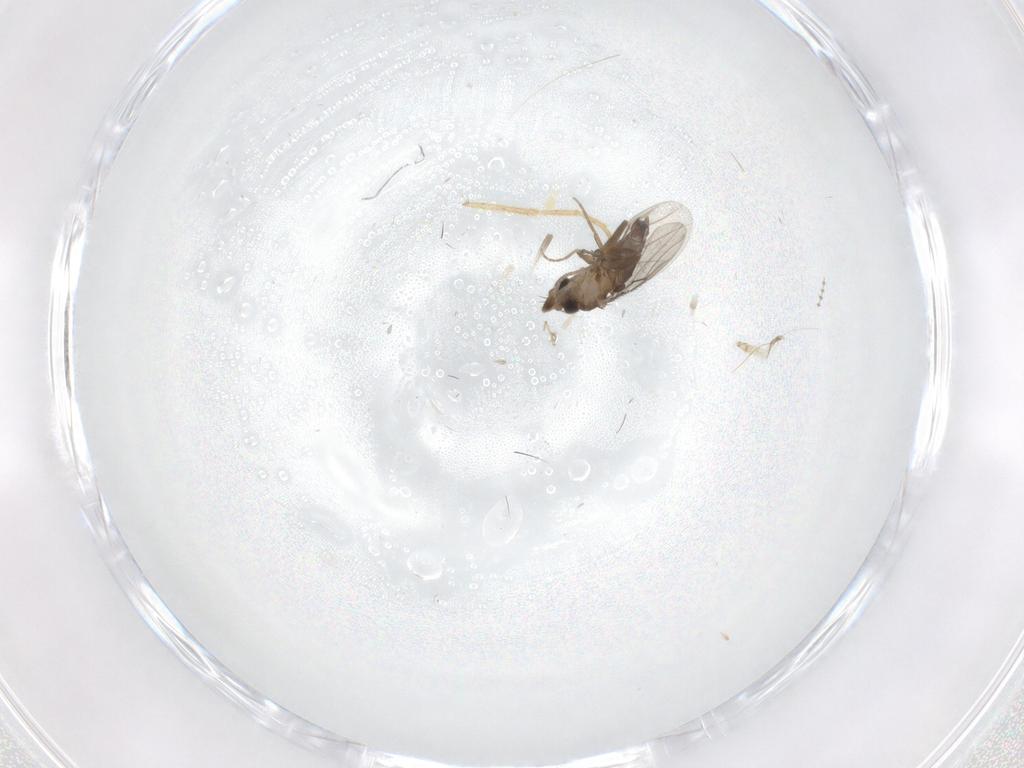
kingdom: Animalia
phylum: Arthropoda
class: Insecta
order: Diptera
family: Phoridae
